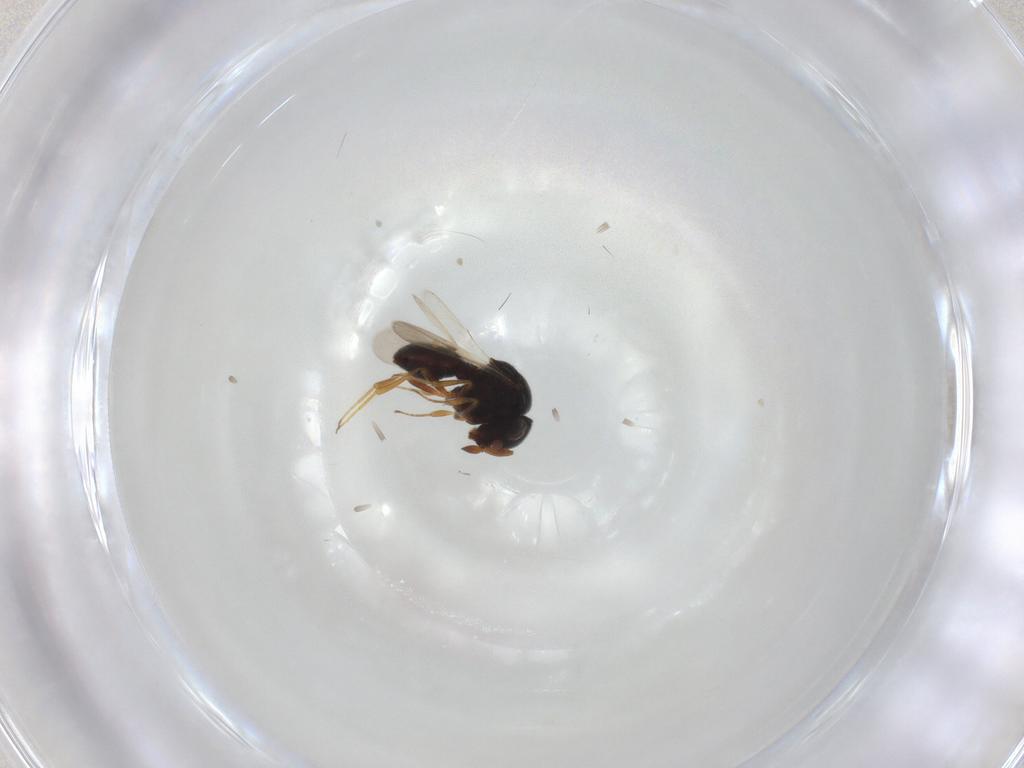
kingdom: Animalia
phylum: Arthropoda
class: Insecta
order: Hymenoptera
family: Scelionidae
